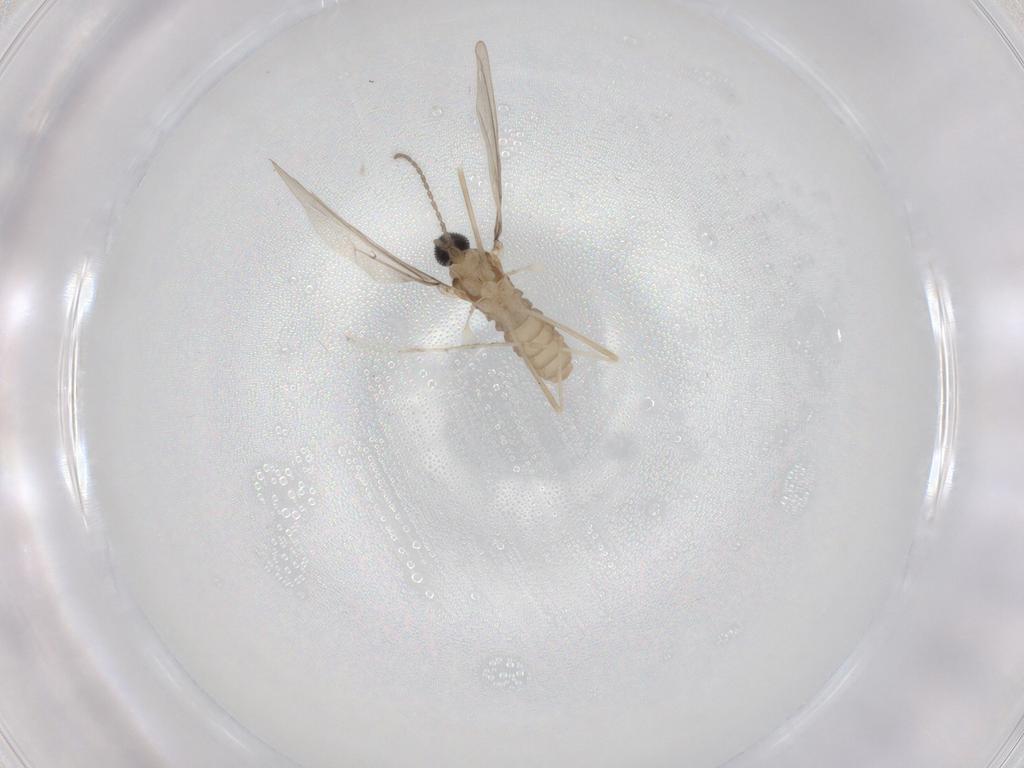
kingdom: Animalia
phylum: Arthropoda
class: Insecta
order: Diptera
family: Cecidomyiidae
